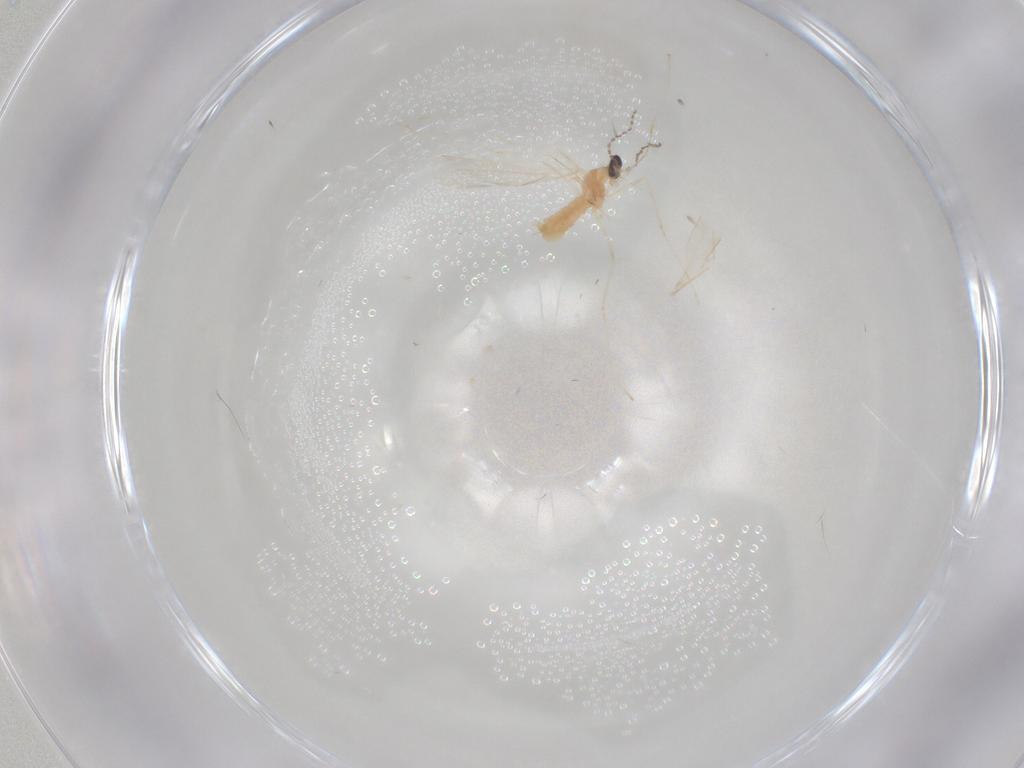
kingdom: Animalia
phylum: Arthropoda
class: Insecta
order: Diptera
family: Cecidomyiidae
